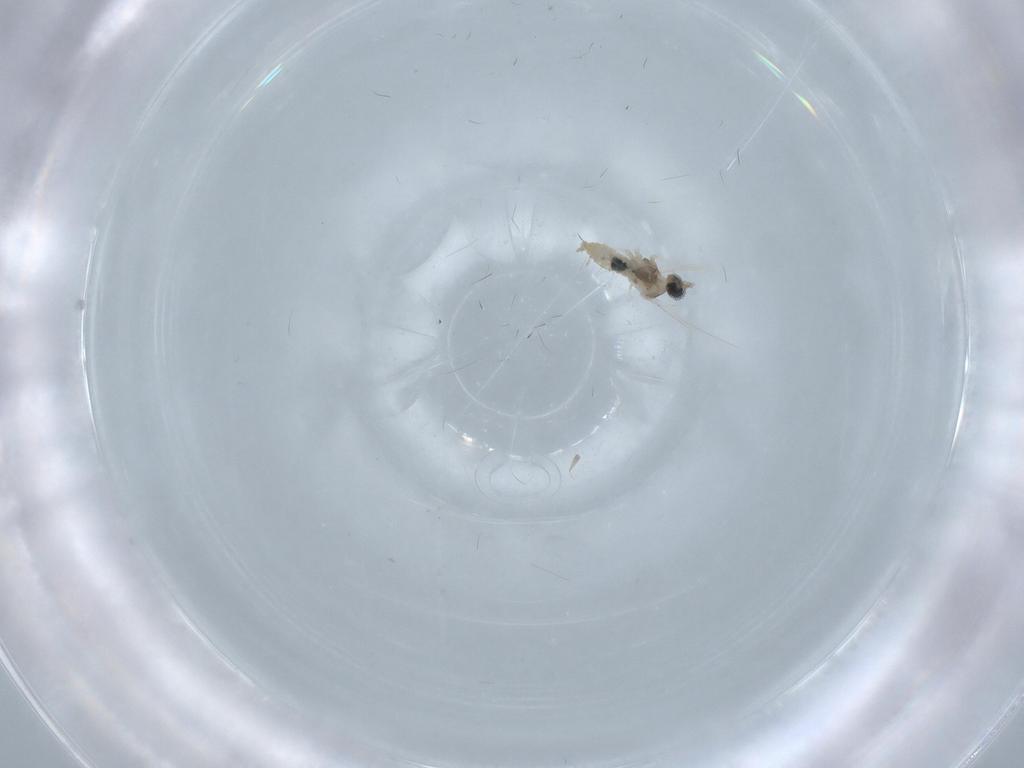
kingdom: Animalia
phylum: Arthropoda
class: Insecta
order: Diptera
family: Cecidomyiidae
